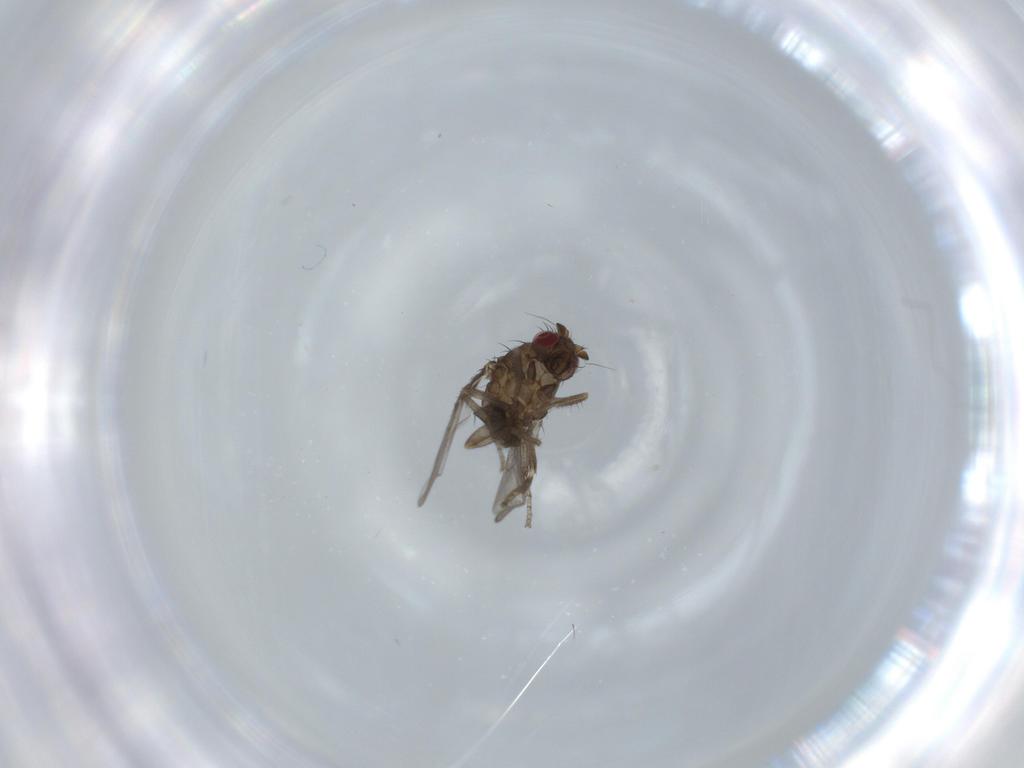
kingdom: Animalia
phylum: Arthropoda
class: Insecta
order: Diptera
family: Sphaeroceridae
